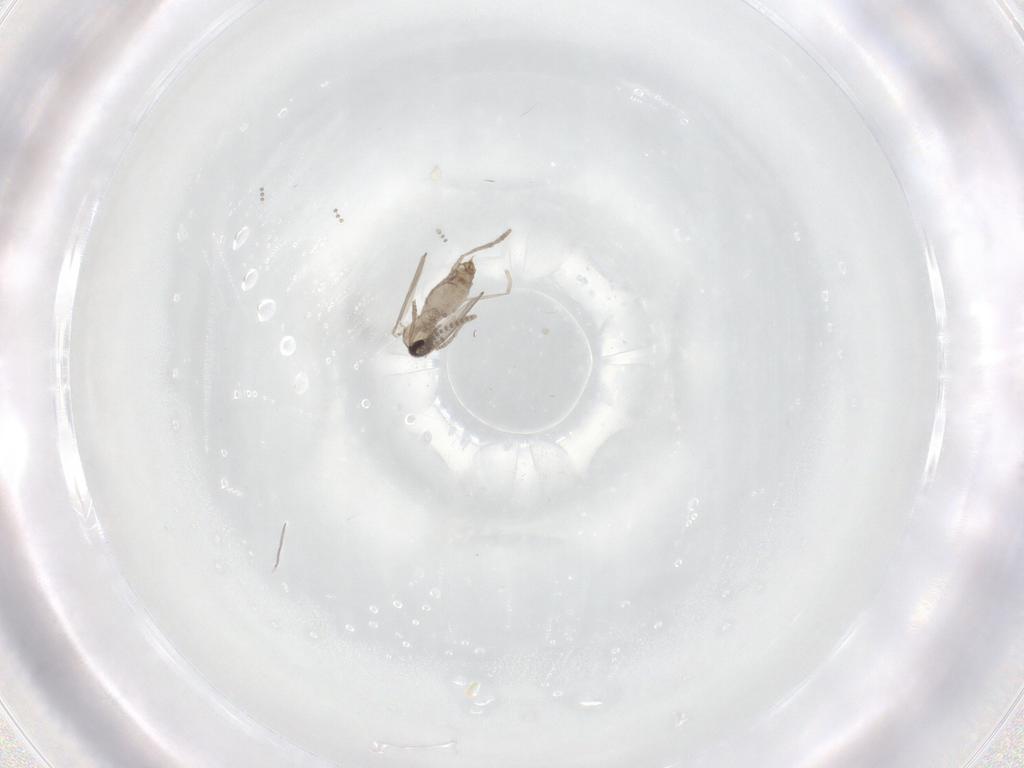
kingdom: Animalia
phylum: Arthropoda
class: Insecta
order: Diptera
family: Psychodidae
